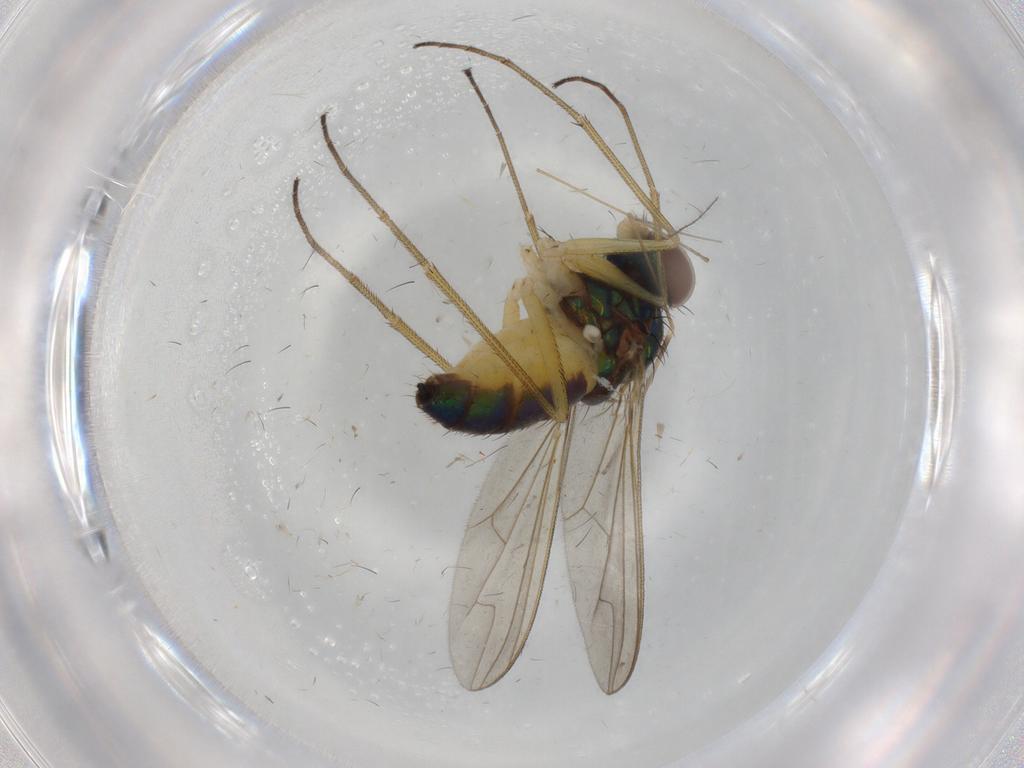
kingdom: Animalia
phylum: Arthropoda
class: Insecta
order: Diptera
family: Dolichopodidae
